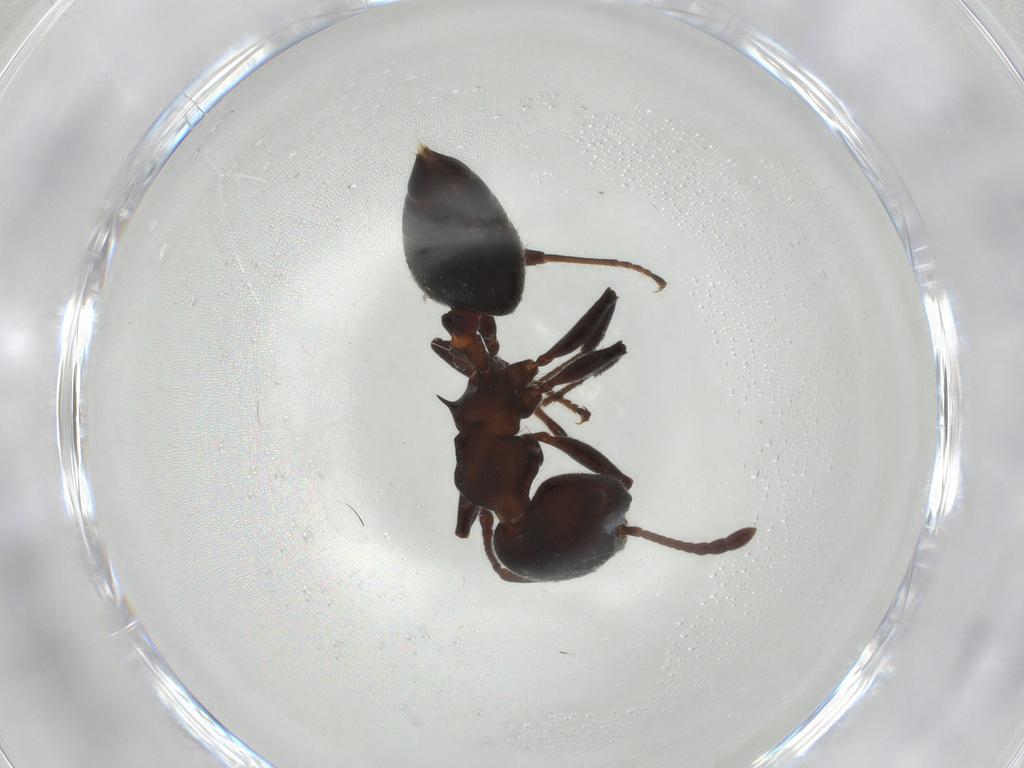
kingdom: Animalia
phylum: Arthropoda
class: Insecta
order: Hymenoptera
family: Formicidae
